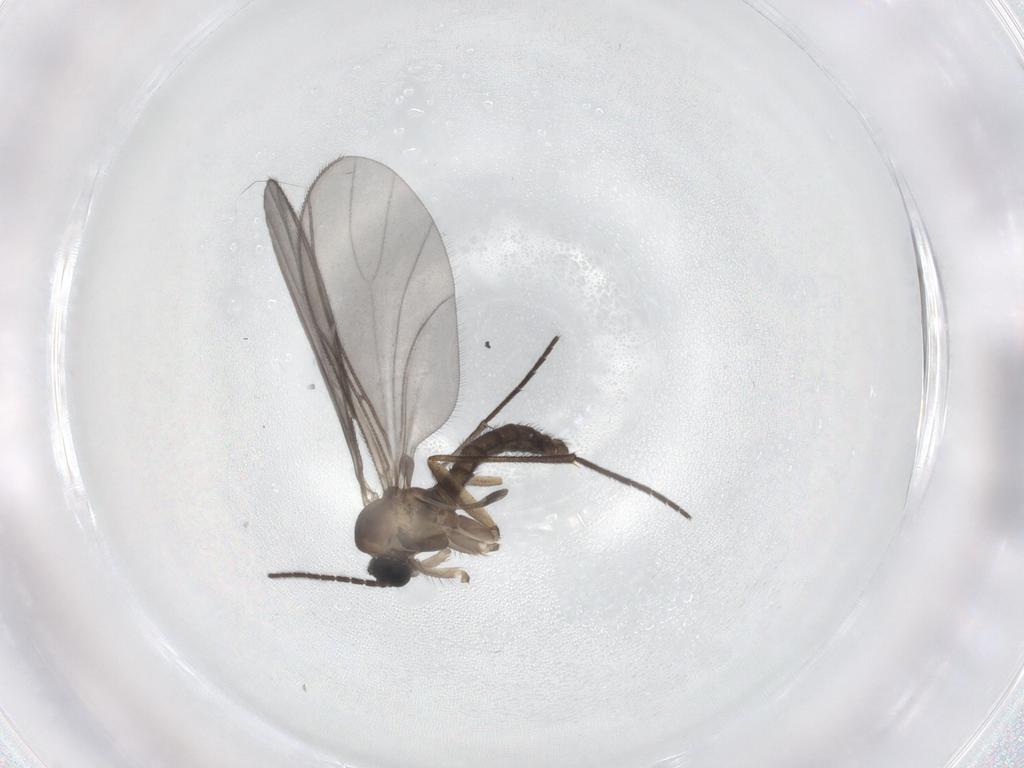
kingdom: Animalia
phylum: Arthropoda
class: Insecta
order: Diptera
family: Sciaridae
